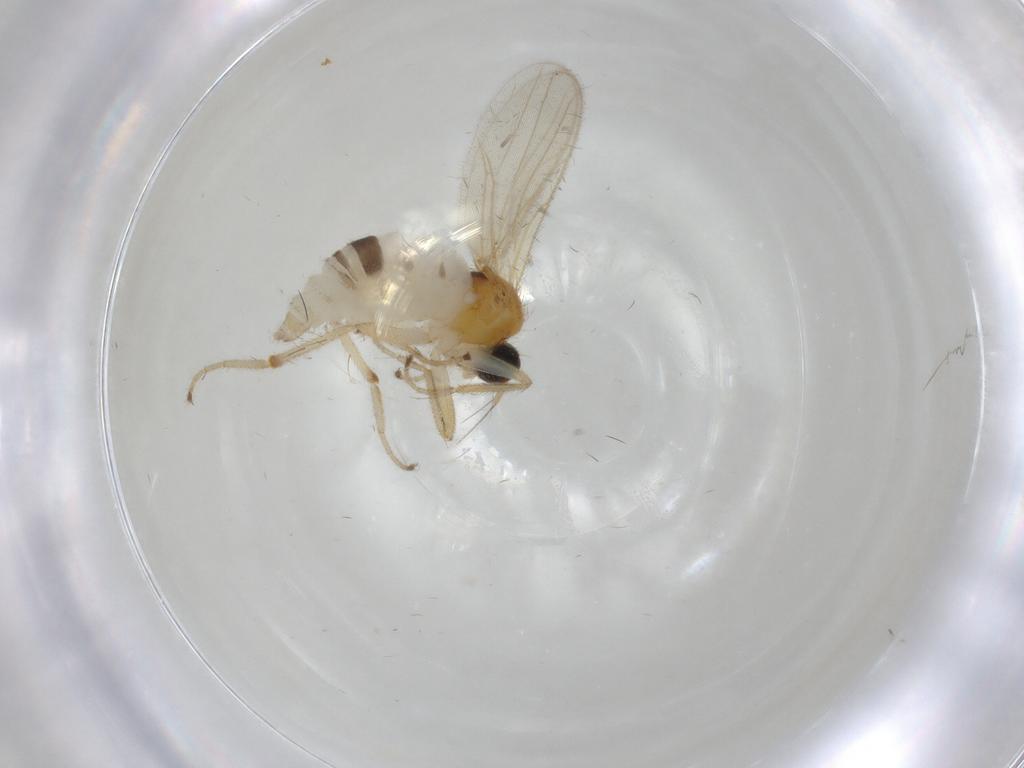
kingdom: Animalia
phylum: Arthropoda
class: Insecta
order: Diptera
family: Hybotidae
